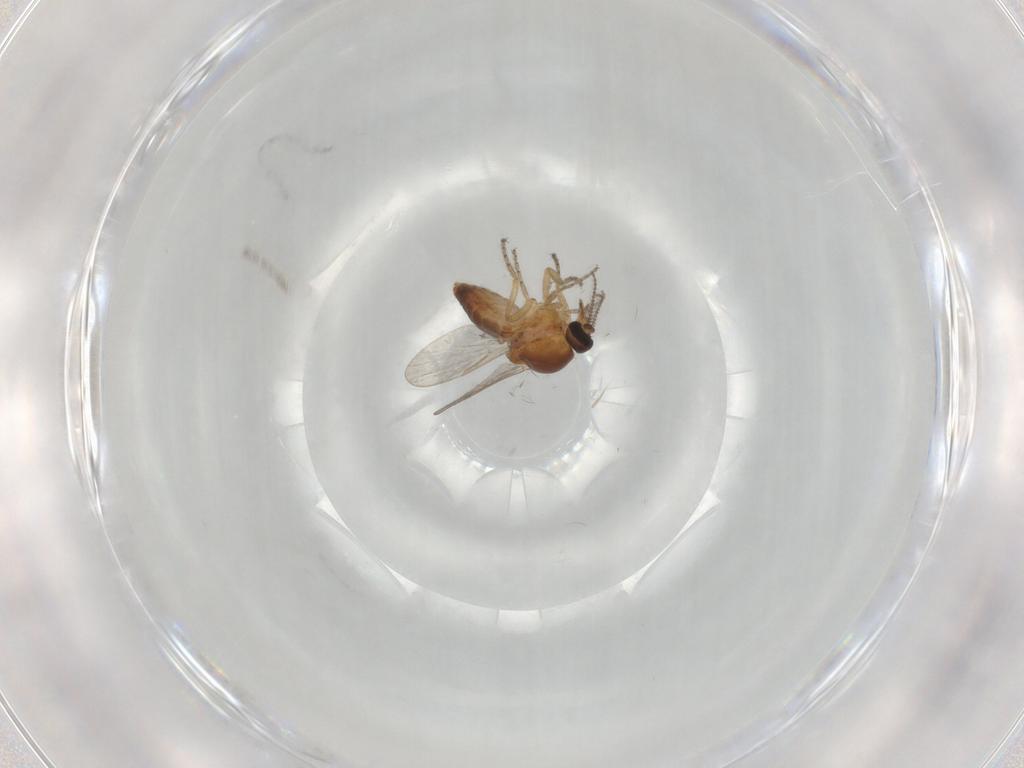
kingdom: Animalia
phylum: Arthropoda
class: Insecta
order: Diptera
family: Ceratopogonidae
